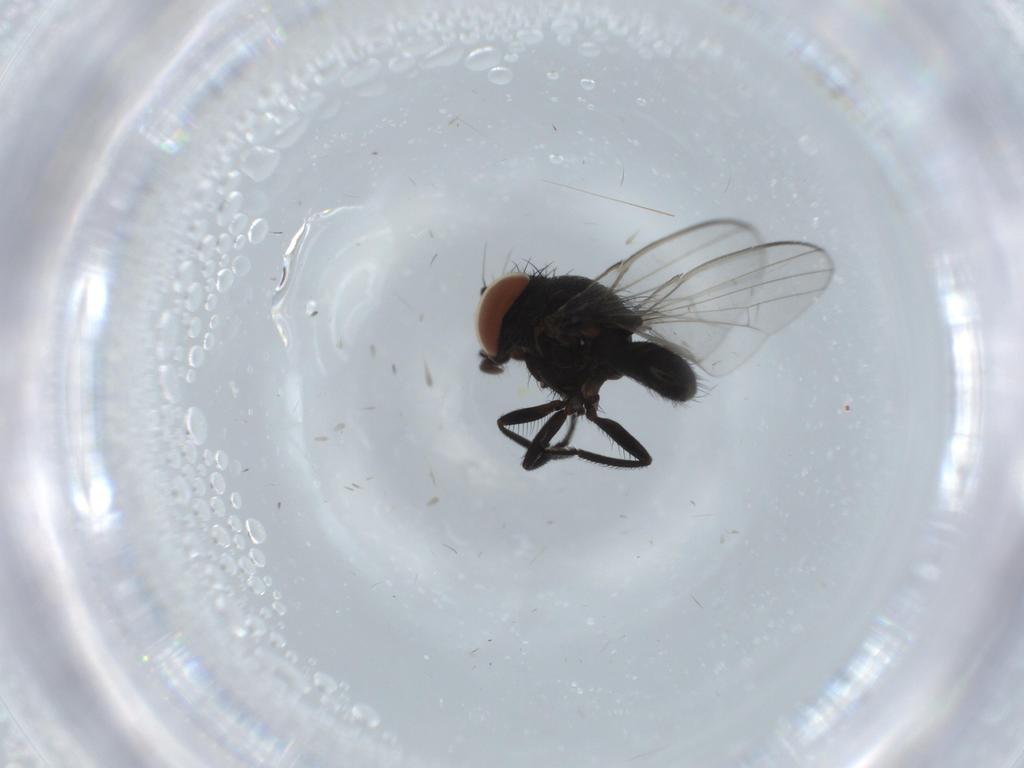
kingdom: Animalia
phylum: Arthropoda
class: Insecta
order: Diptera
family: Milichiidae
